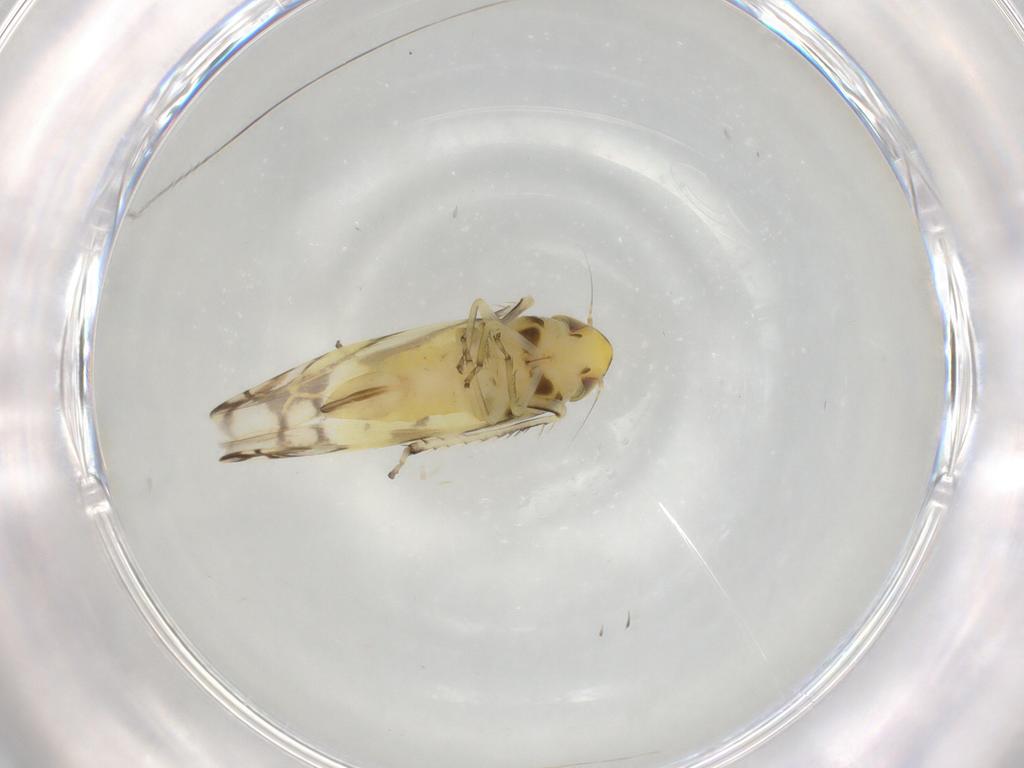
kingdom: Animalia
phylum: Arthropoda
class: Insecta
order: Hemiptera
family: Cicadellidae
